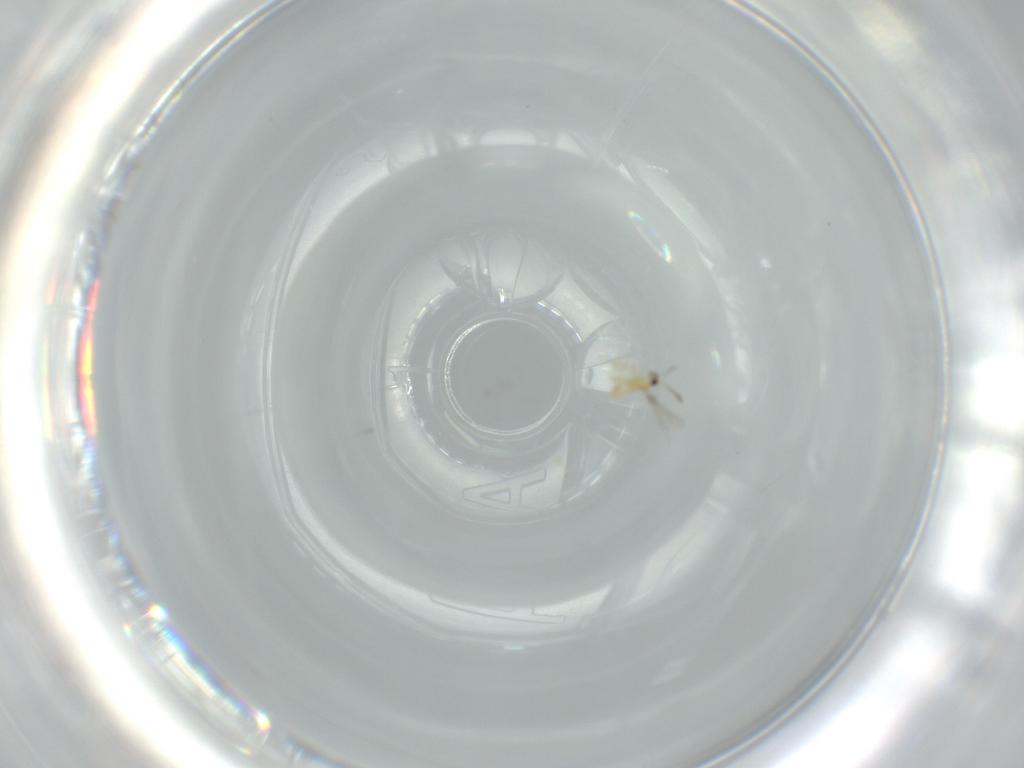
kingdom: Animalia
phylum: Arthropoda
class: Insecta
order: Hymenoptera
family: Mymaridae
